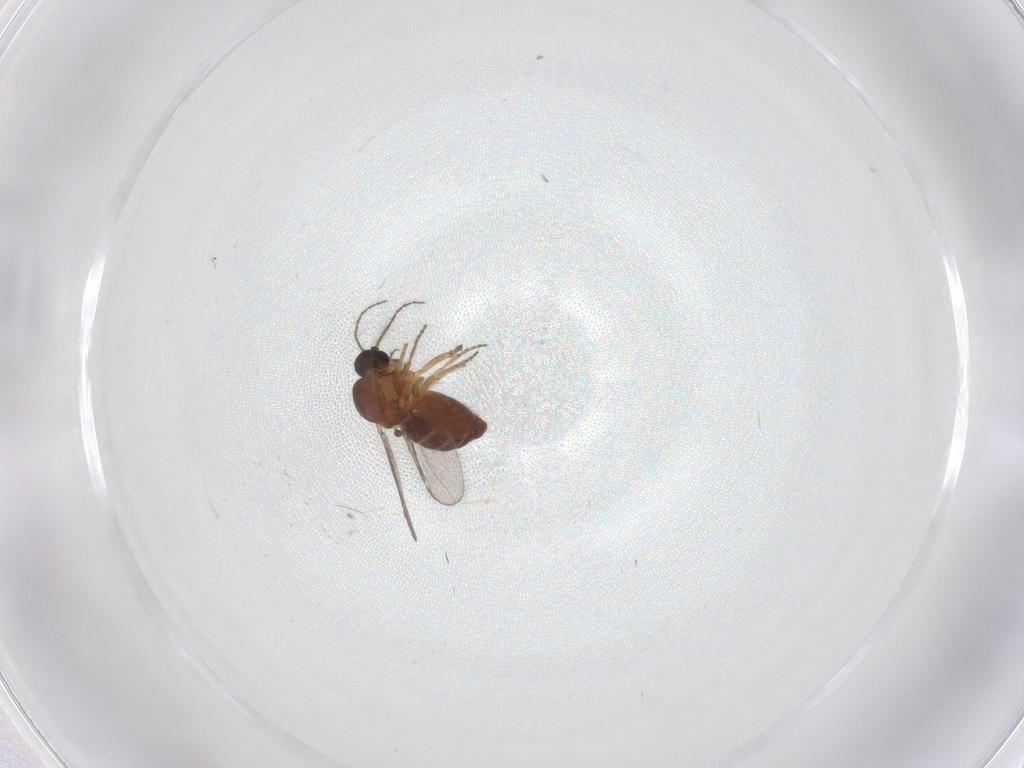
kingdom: Animalia
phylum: Arthropoda
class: Insecta
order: Diptera
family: Ceratopogonidae
